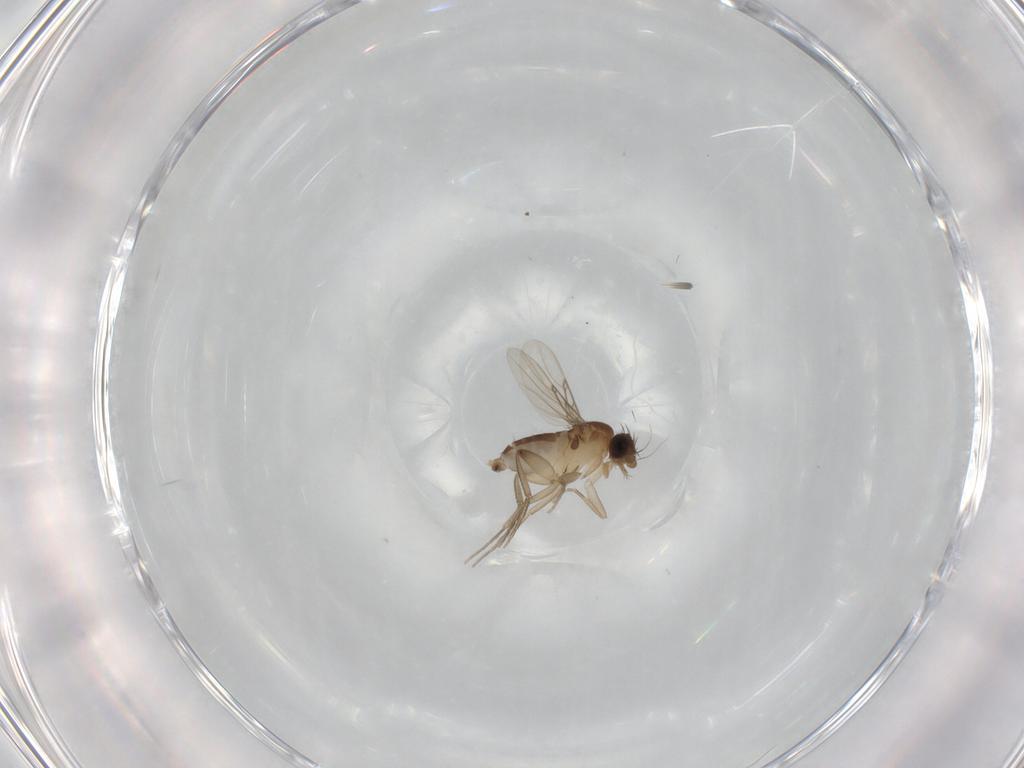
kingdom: Animalia
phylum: Arthropoda
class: Insecta
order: Diptera
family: Phoridae
